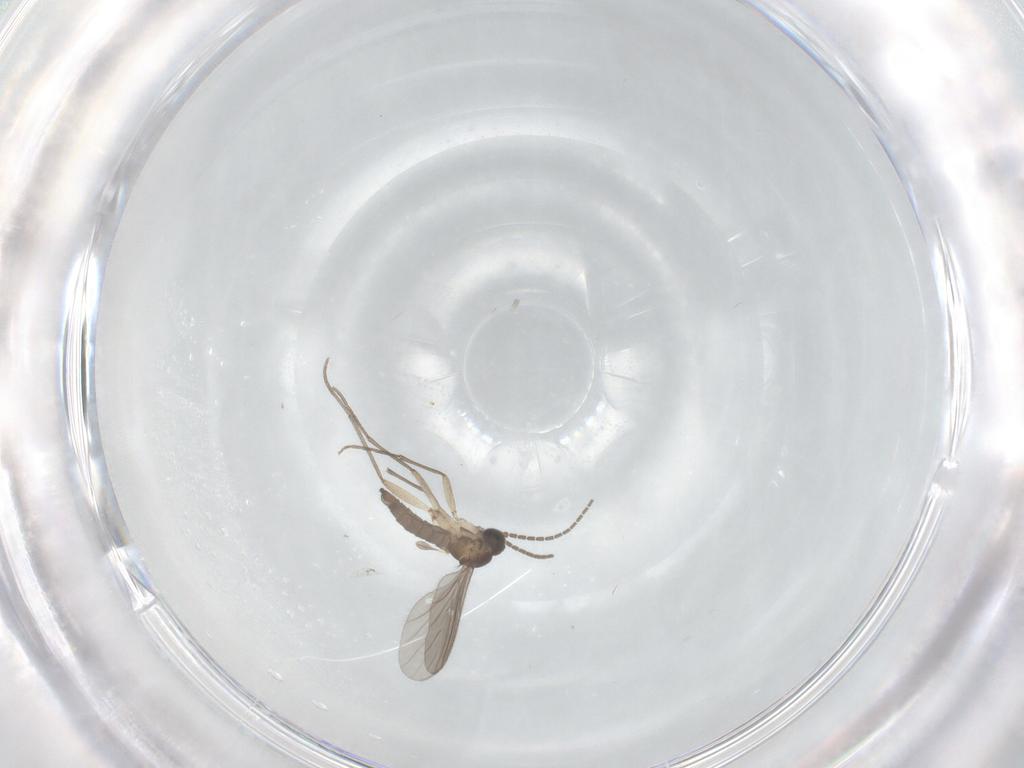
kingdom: Animalia
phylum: Arthropoda
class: Insecta
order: Diptera
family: Sciaridae
